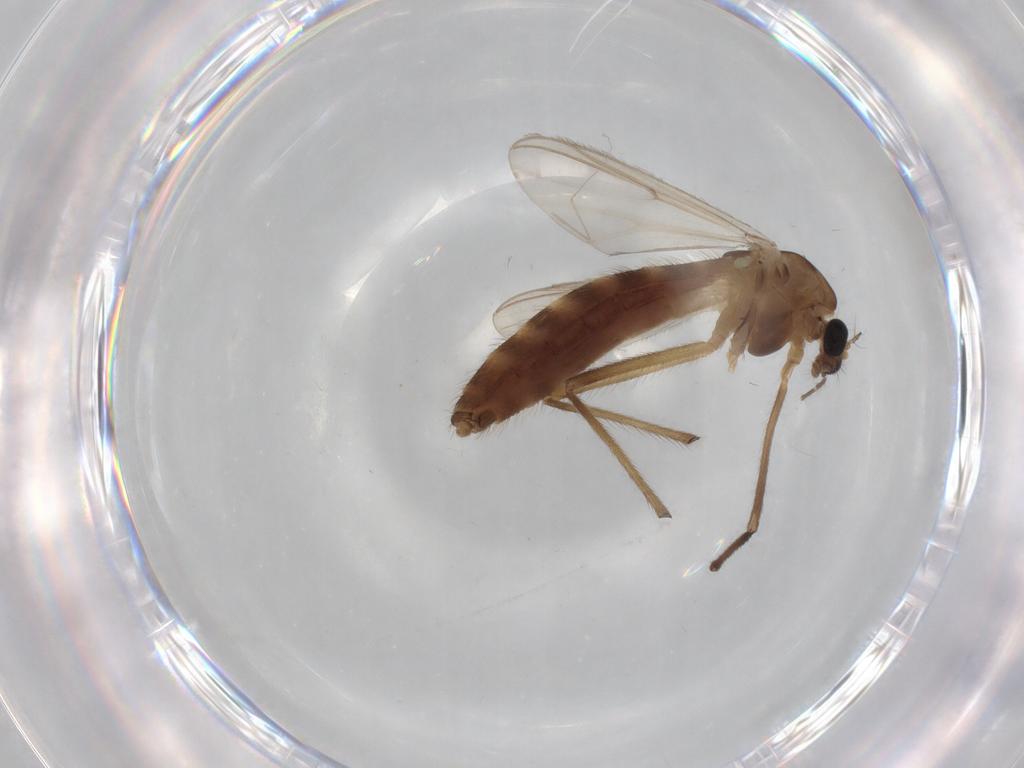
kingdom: Animalia
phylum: Arthropoda
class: Insecta
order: Diptera
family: Chironomidae
